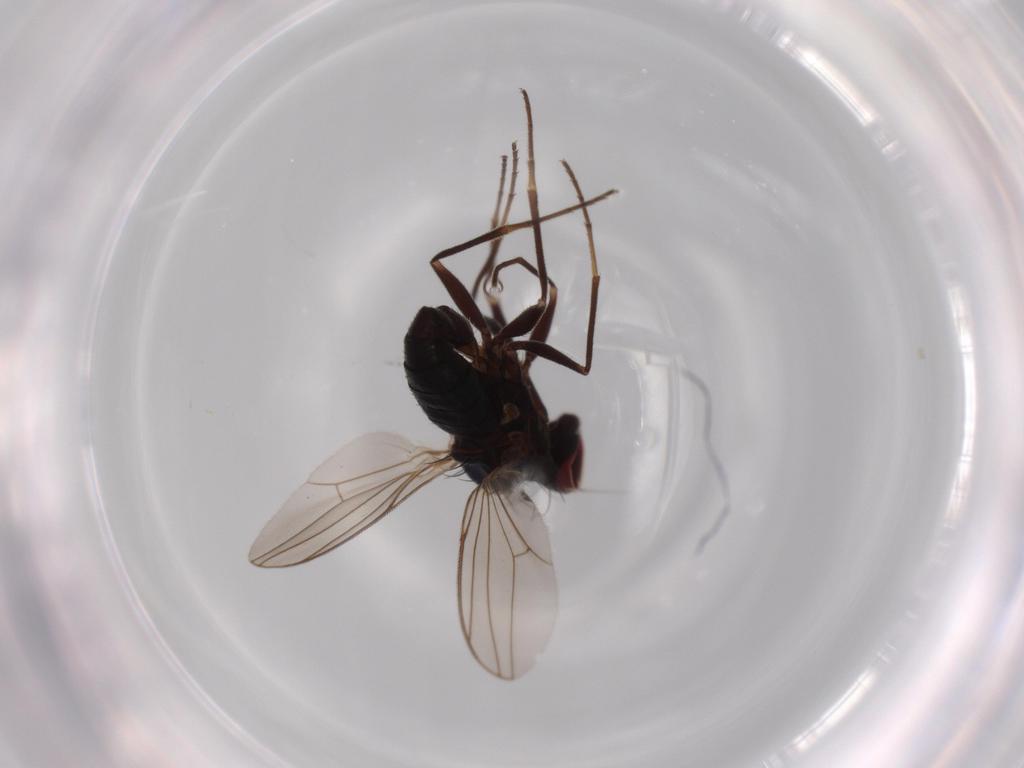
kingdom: Animalia
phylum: Arthropoda
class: Insecta
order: Diptera
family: Dolichopodidae
